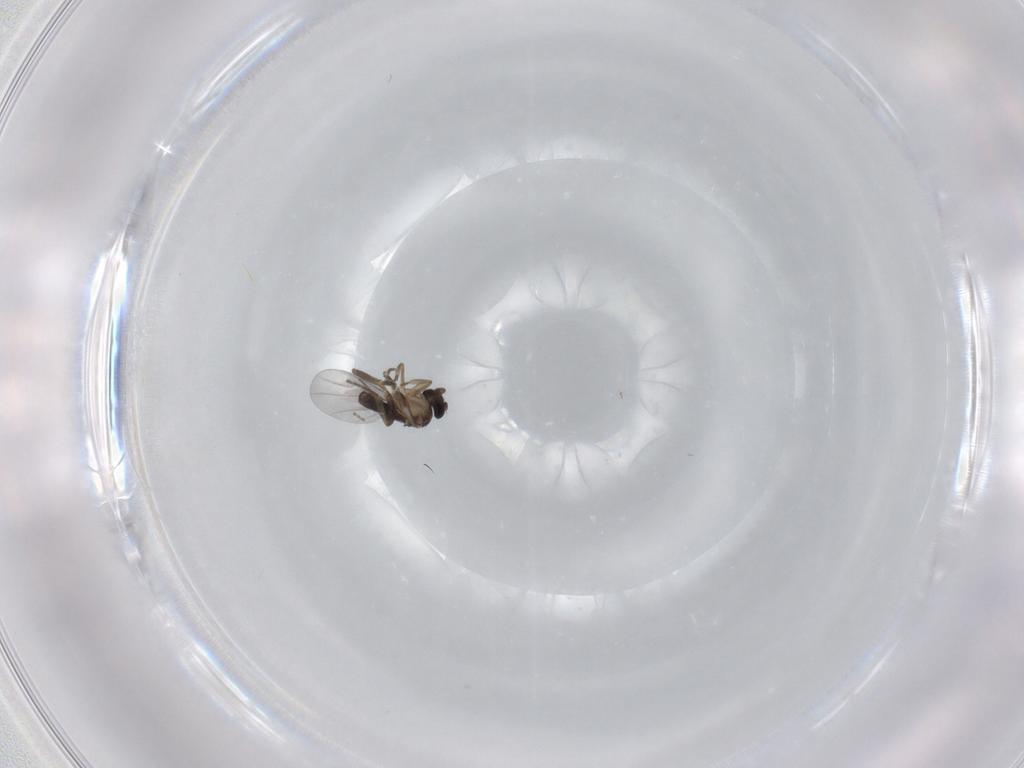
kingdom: Animalia
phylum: Arthropoda
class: Insecta
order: Diptera
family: Phoridae
